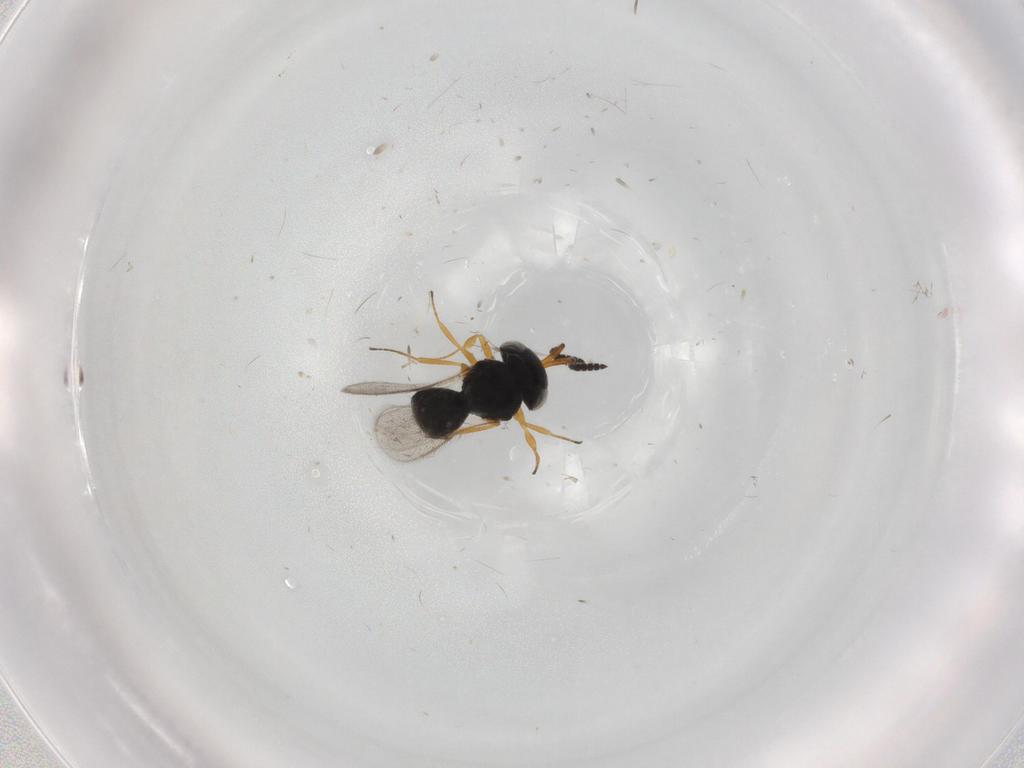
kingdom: Animalia
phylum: Arthropoda
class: Insecta
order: Hymenoptera
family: Scelionidae
